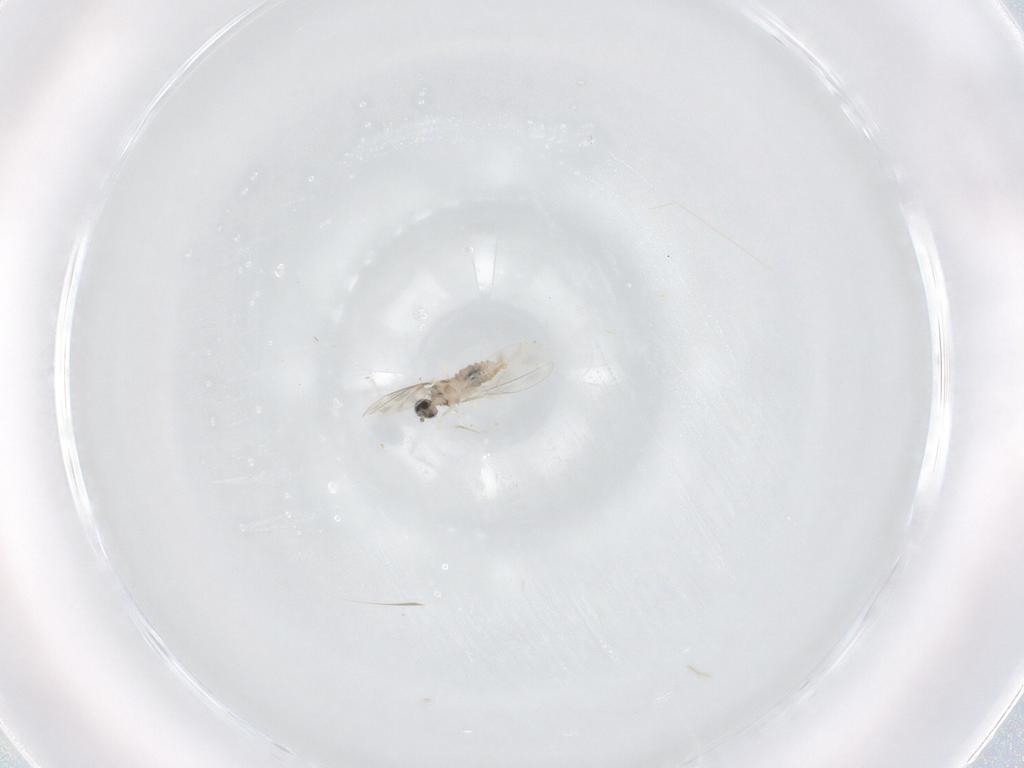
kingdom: Animalia
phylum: Arthropoda
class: Insecta
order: Diptera
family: Cecidomyiidae
